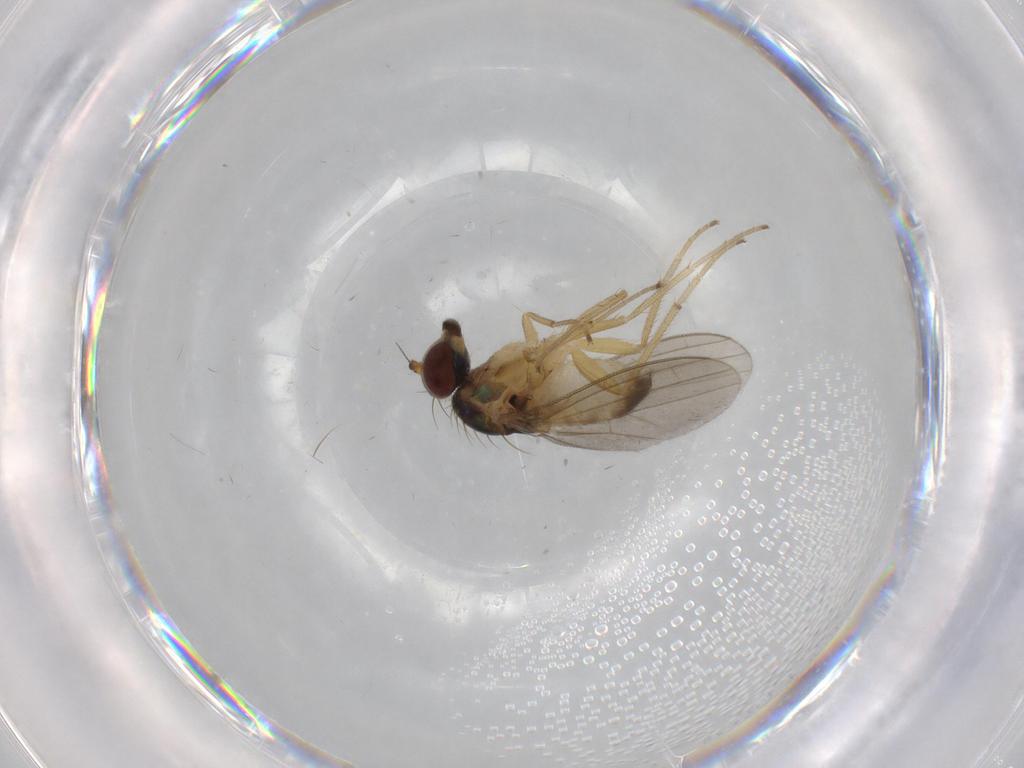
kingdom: Animalia
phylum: Arthropoda
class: Insecta
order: Diptera
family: Dolichopodidae
